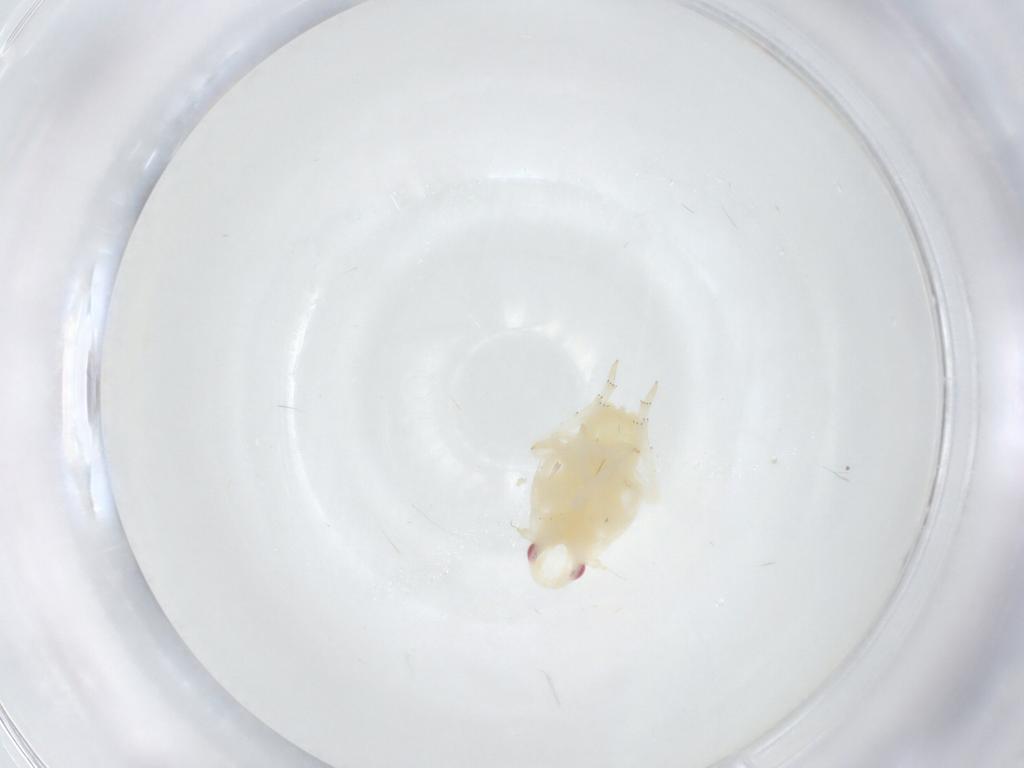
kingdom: Animalia
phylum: Arthropoda
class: Insecta
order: Hemiptera
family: Flatidae
